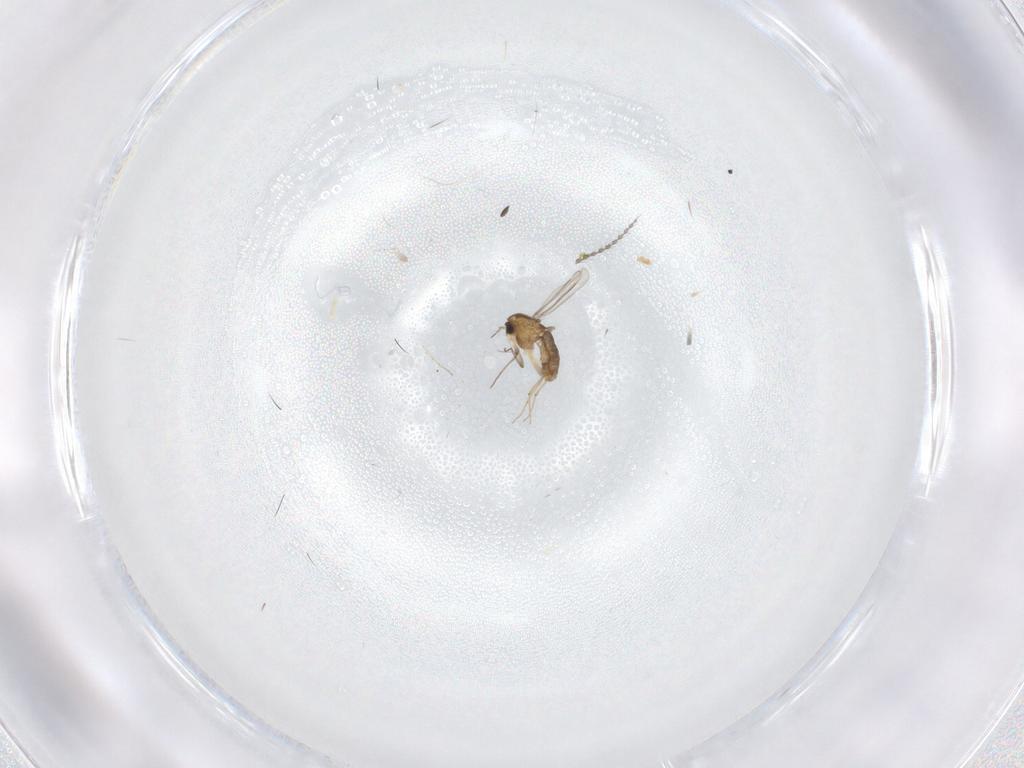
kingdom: Animalia
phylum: Arthropoda
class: Insecta
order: Diptera
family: Chironomidae
